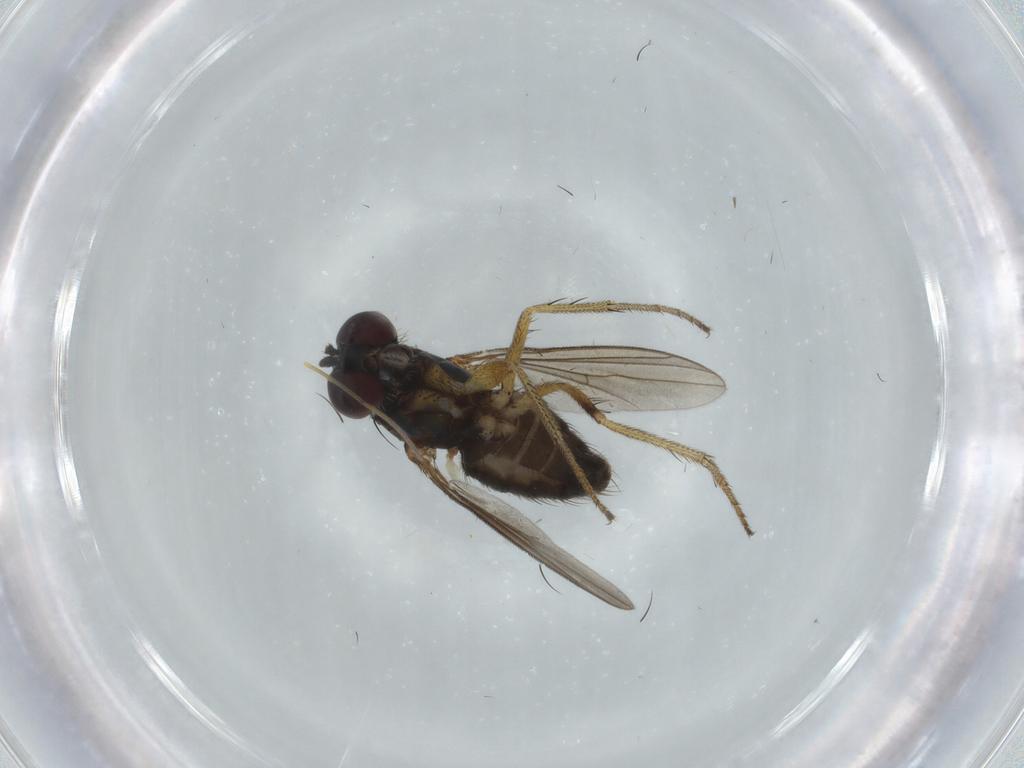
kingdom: Animalia
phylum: Arthropoda
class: Insecta
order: Diptera
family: Dolichopodidae
